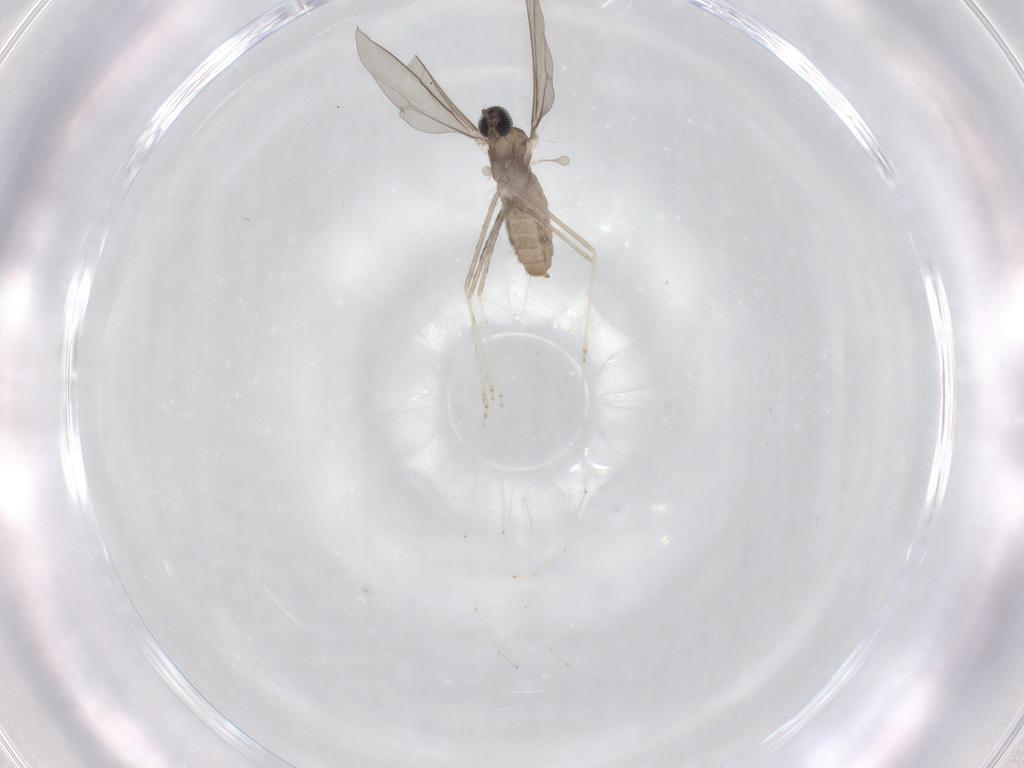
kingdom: Animalia
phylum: Arthropoda
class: Insecta
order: Diptera
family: Cecidomyiidae
